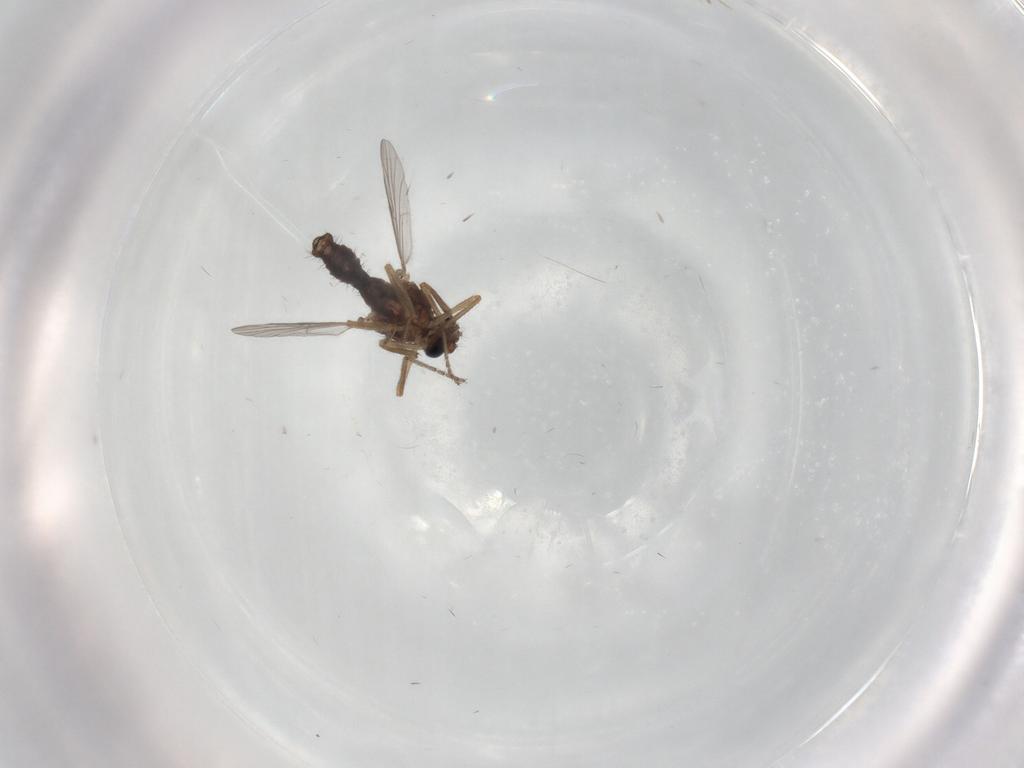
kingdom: Animalia
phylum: Arthropoda
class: Insecta
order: Diptera
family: Ceratopogonidae
